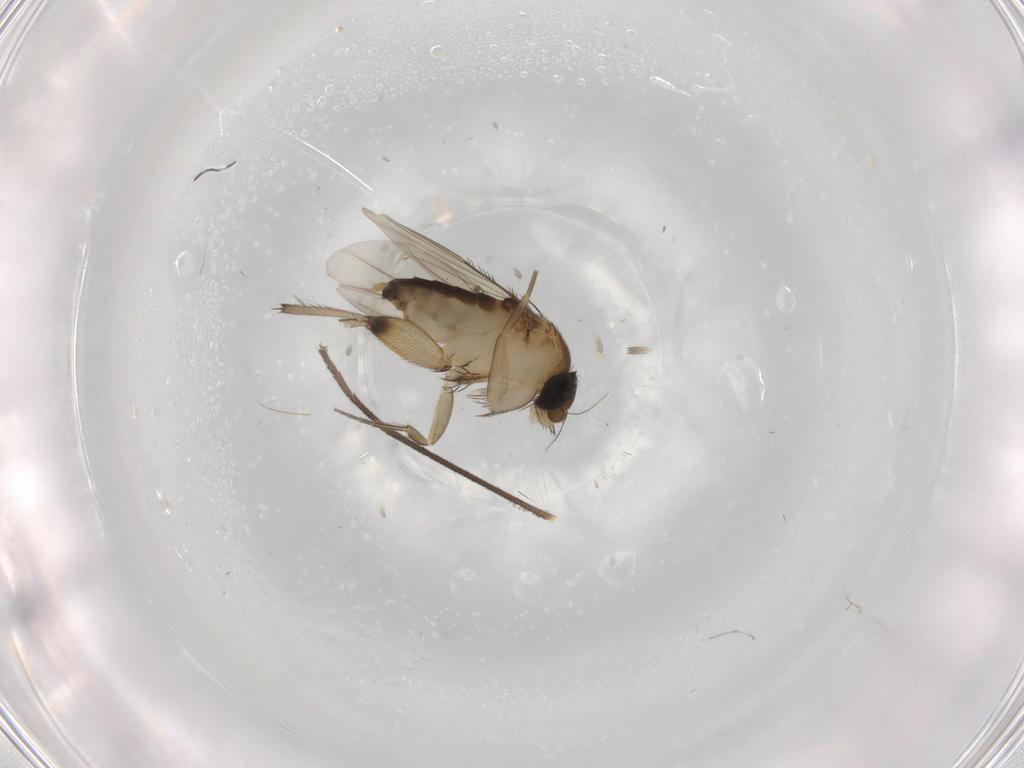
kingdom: Animalia
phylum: Arthropoda
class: Insecta
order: Diptera
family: Phoridae
